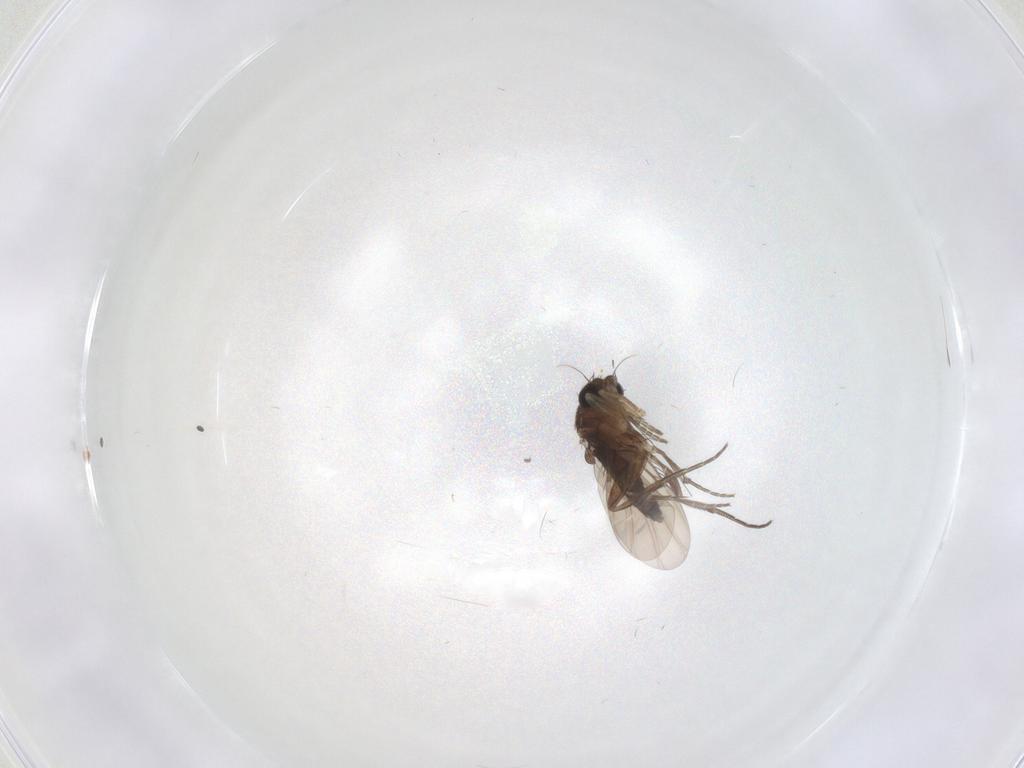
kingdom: Animalia
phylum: Arthropoda
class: Insecta
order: Diptera
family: Phoridae
